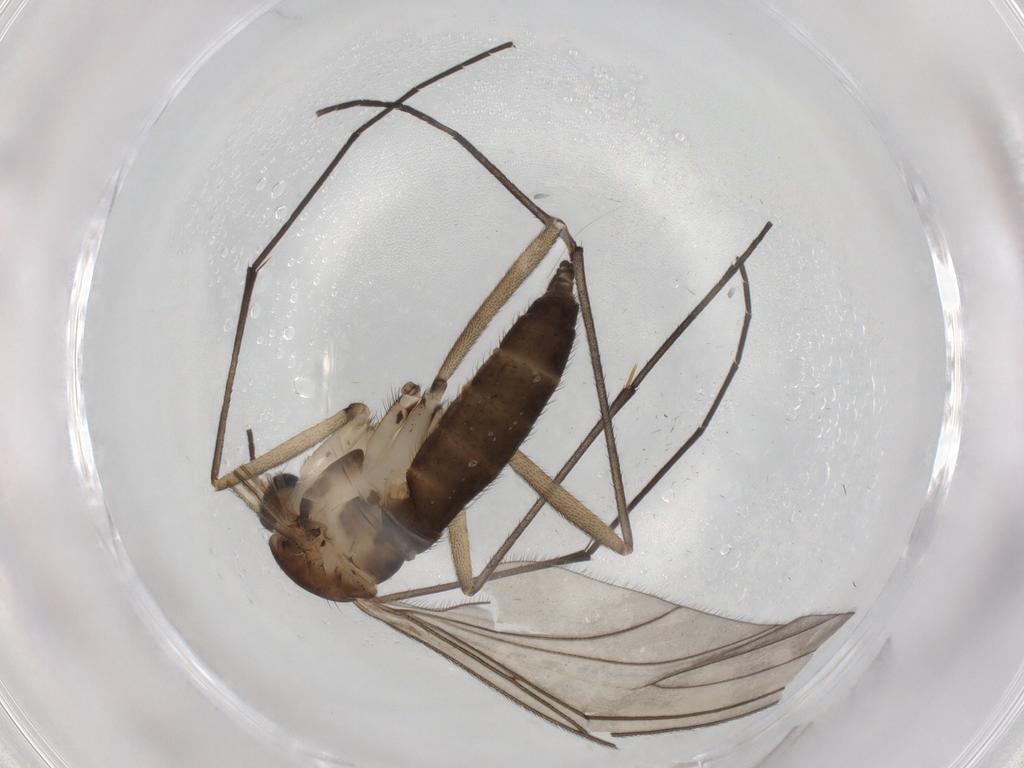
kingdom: Animalia
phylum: Arthropoda
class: Insecta
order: Diptera
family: Sciaridae
